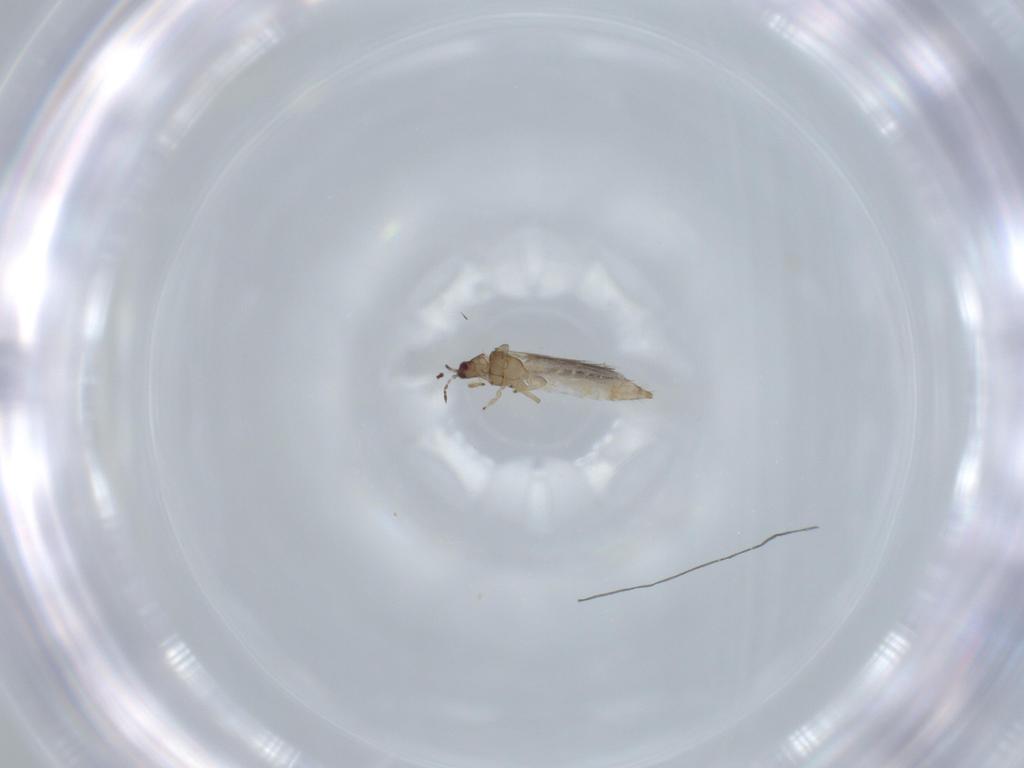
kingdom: Animalia
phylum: Arthropoda
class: Insecta
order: Thysanoptera
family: Thripidae
